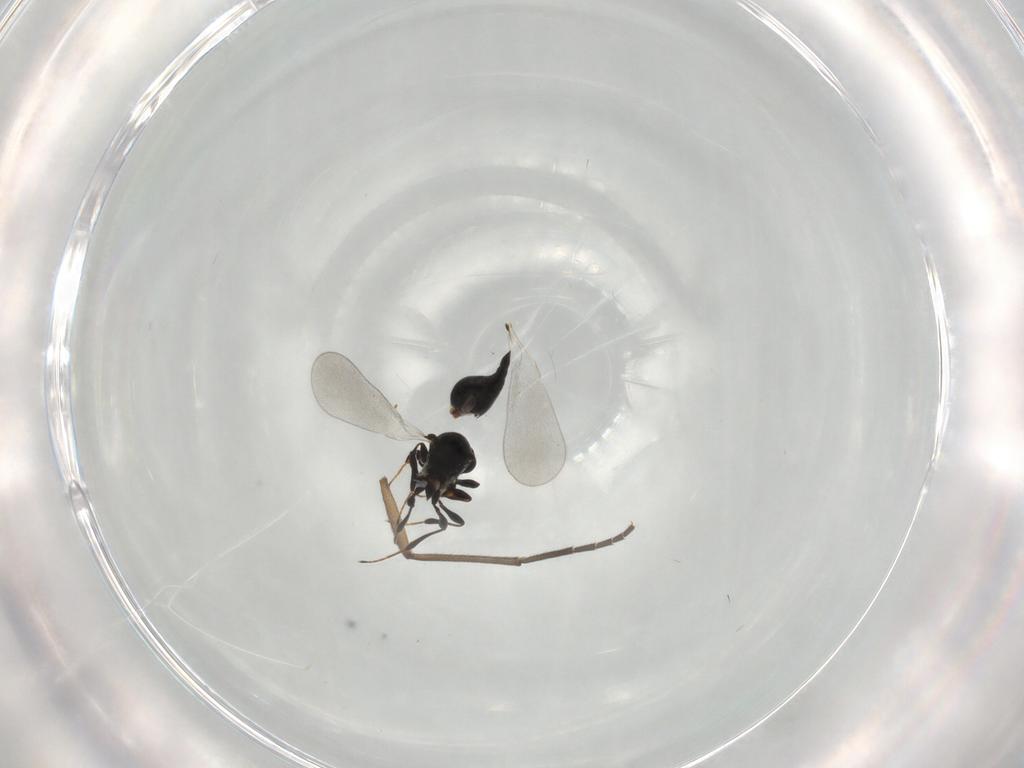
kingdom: Animalia
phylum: Arthropoda
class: Insecta
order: Hymenoptera
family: Platygastridae
